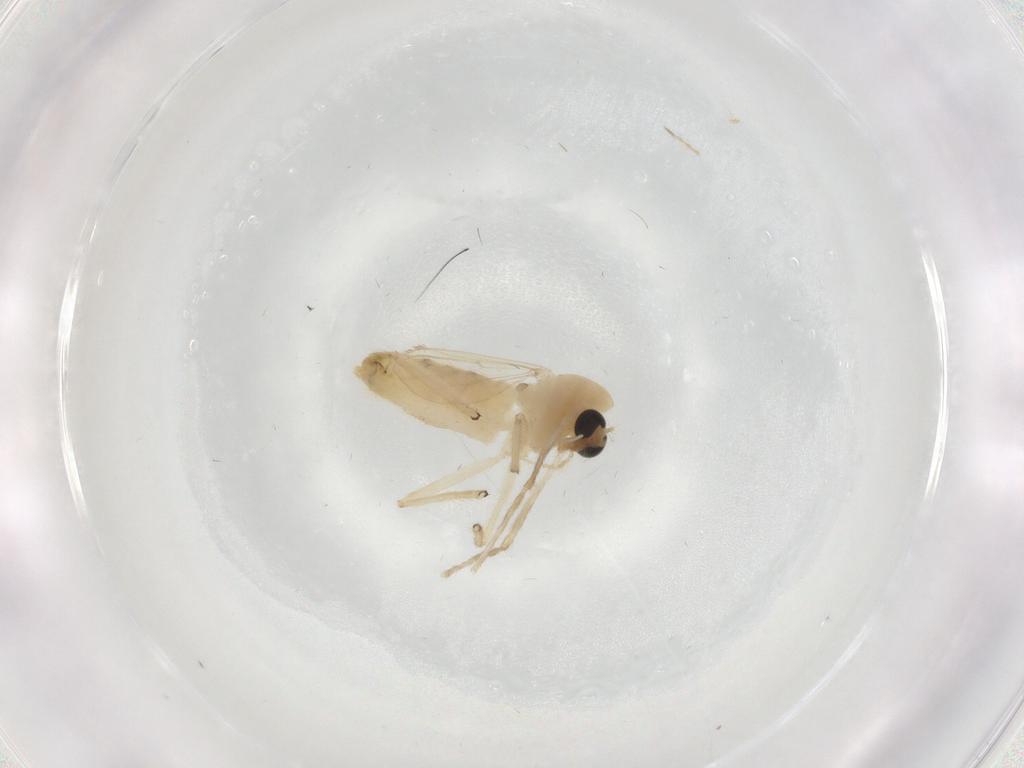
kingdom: Animalia
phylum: Arthropoda
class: Insecta
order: Diptera
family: Chironomidae
